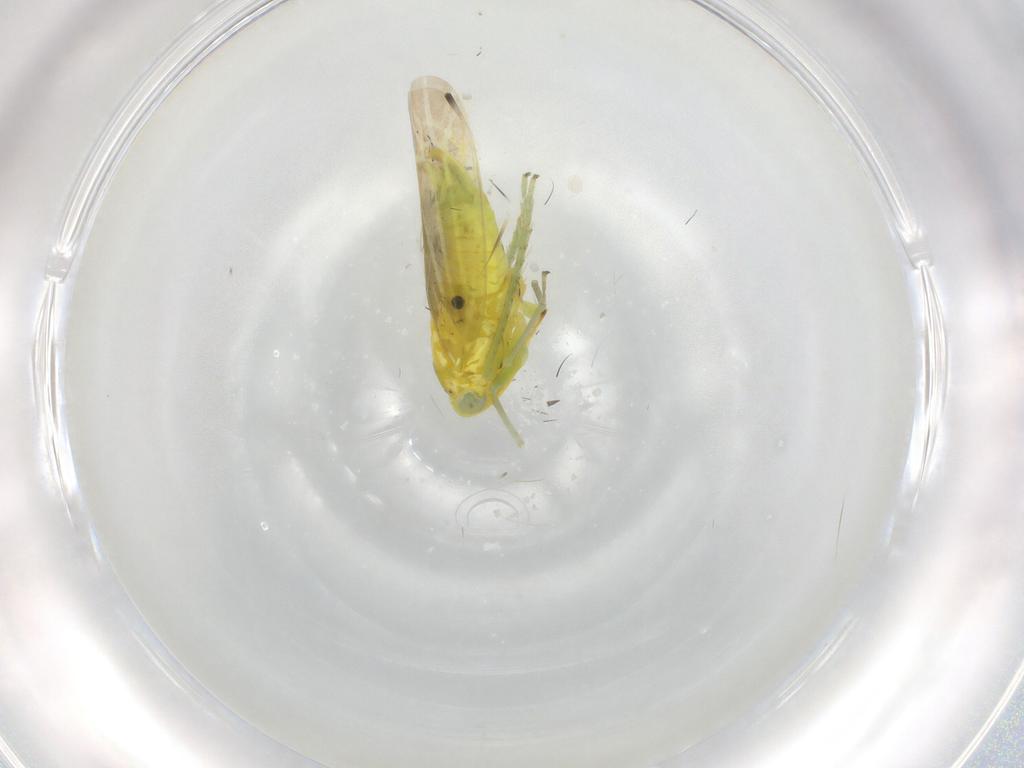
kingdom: Animalia
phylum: Arthropoda
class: Insecta
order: Hemiptera
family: Cicadellidae
